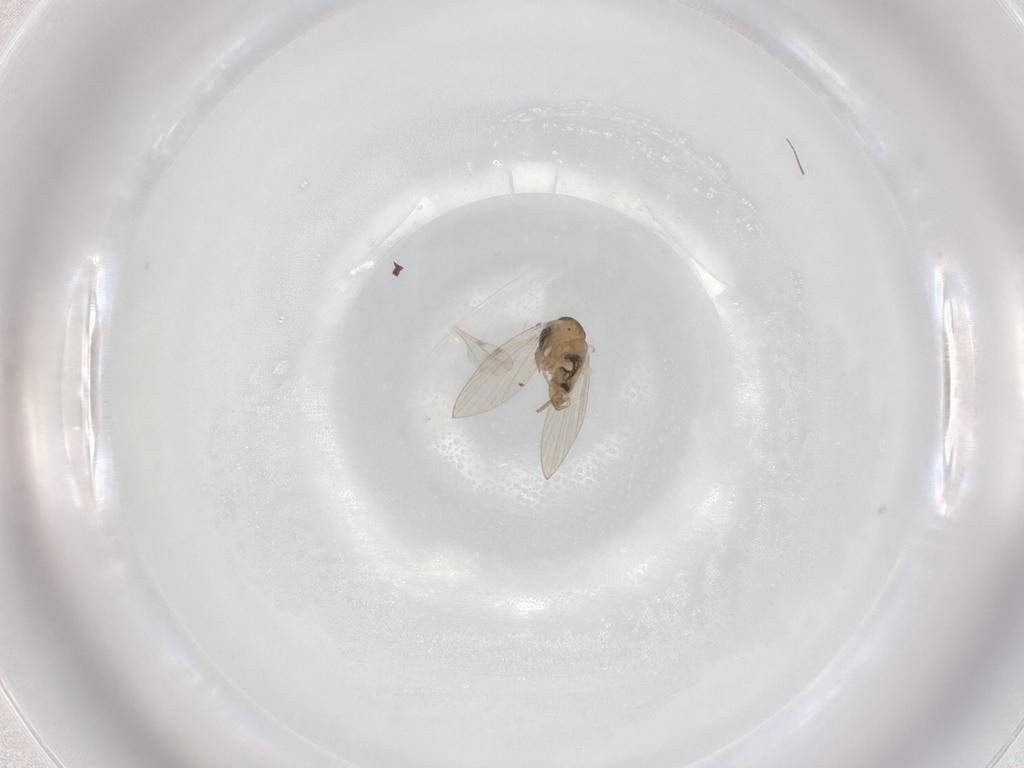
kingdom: Animalia
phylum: Arthropoda
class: Insecta
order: Diptera
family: Psychodidae
